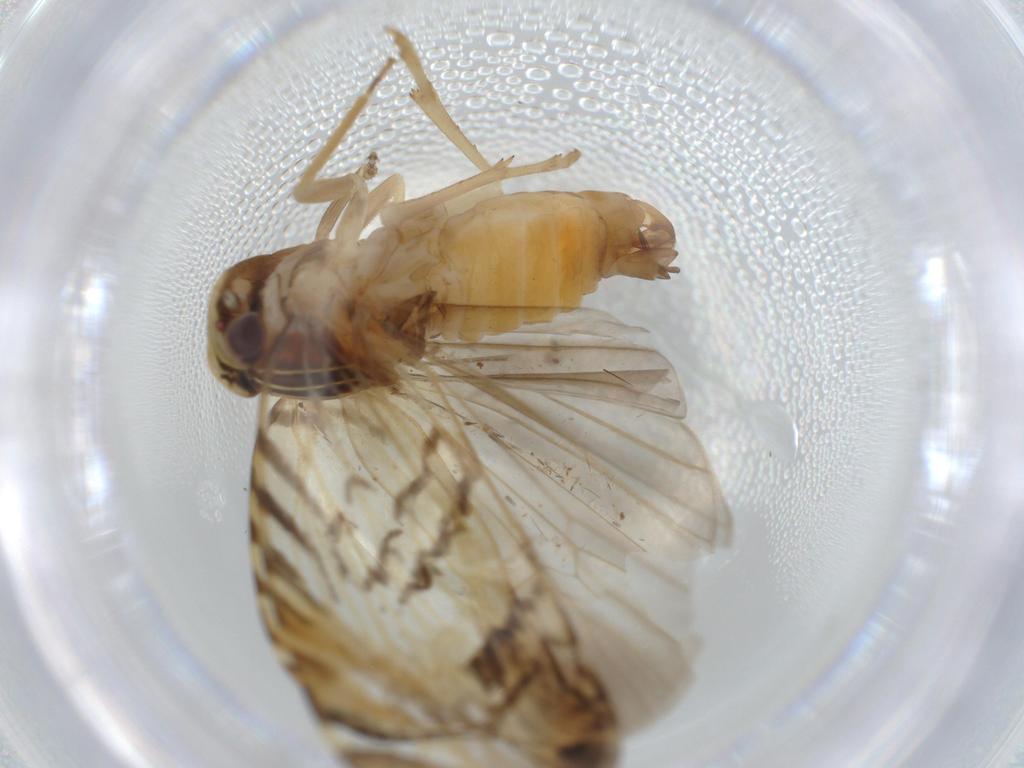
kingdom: Animalia
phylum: Arthropoda
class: Insecta
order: Hemiptera
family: Cixiidae
